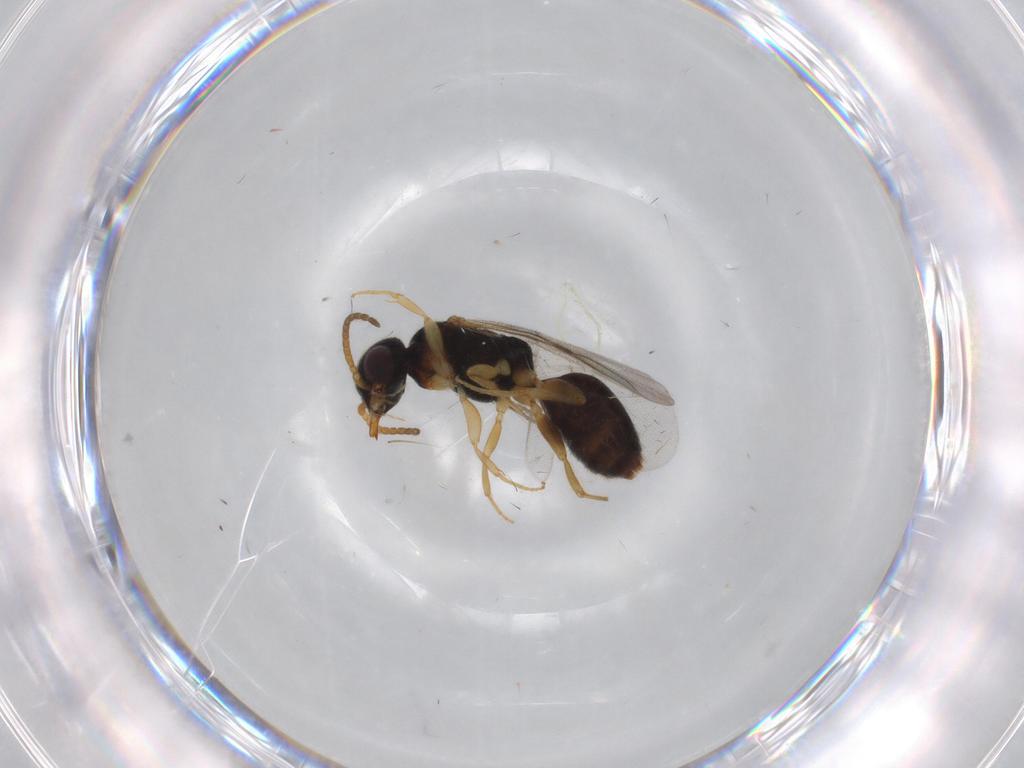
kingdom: Animalia
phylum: Arthropoda
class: Insecta
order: Hymenoptera
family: Bethylidae
